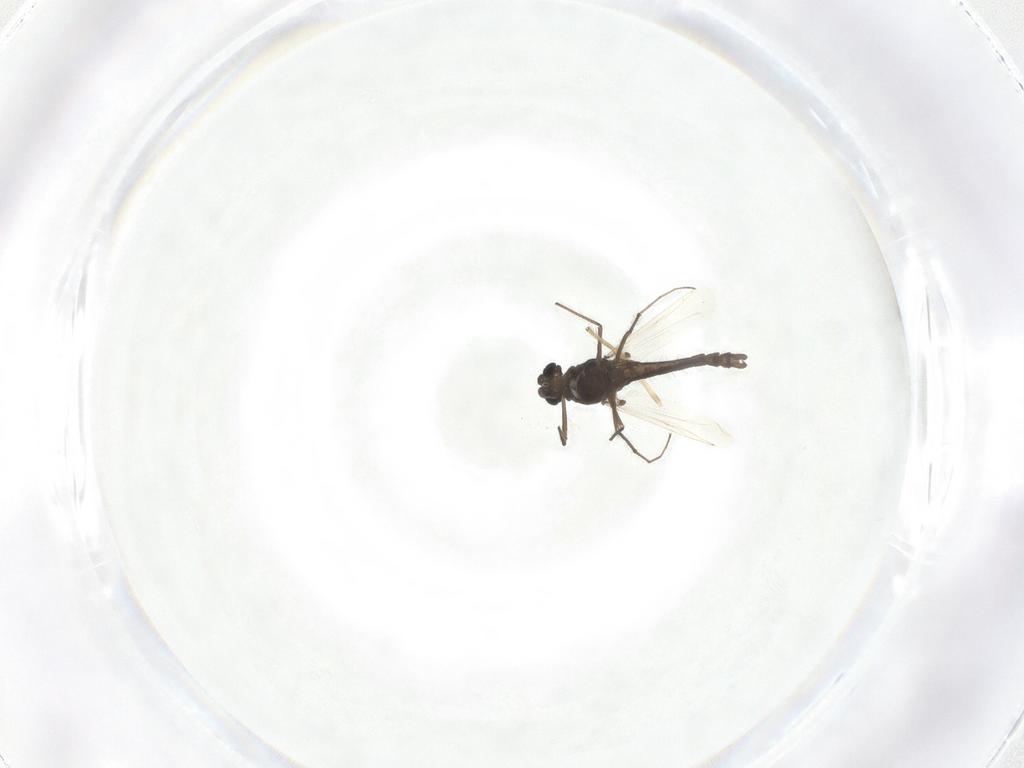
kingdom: Animalia
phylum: Arthropoda
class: Insecta
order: Diptera
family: Chironomidae
